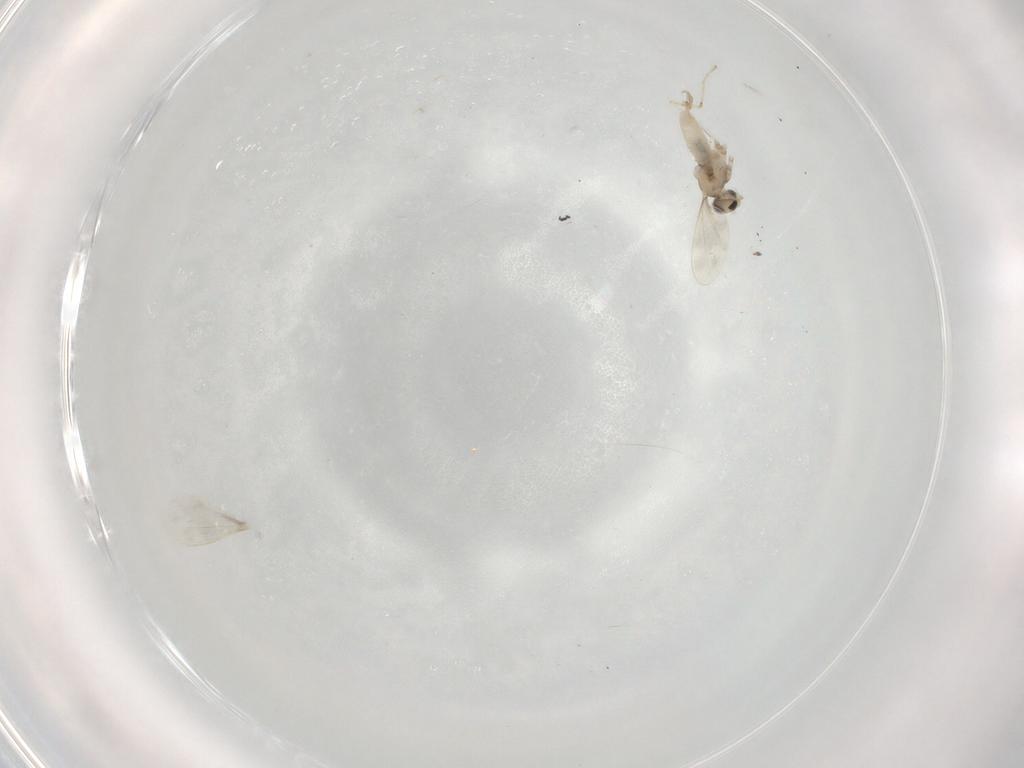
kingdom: Animalia
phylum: Arthropoda
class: Insecta
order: Diptera
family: Cecidomyiidae
